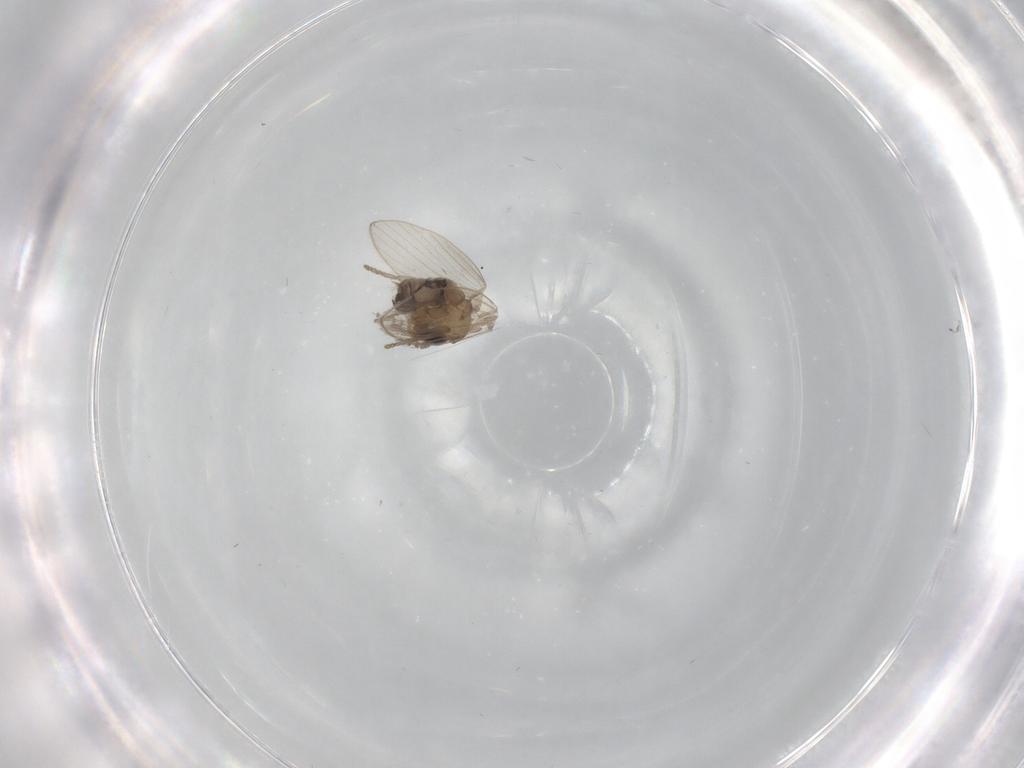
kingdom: Animalia
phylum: Arthropoda
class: Insecta
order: Diptera
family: Psychodidae
